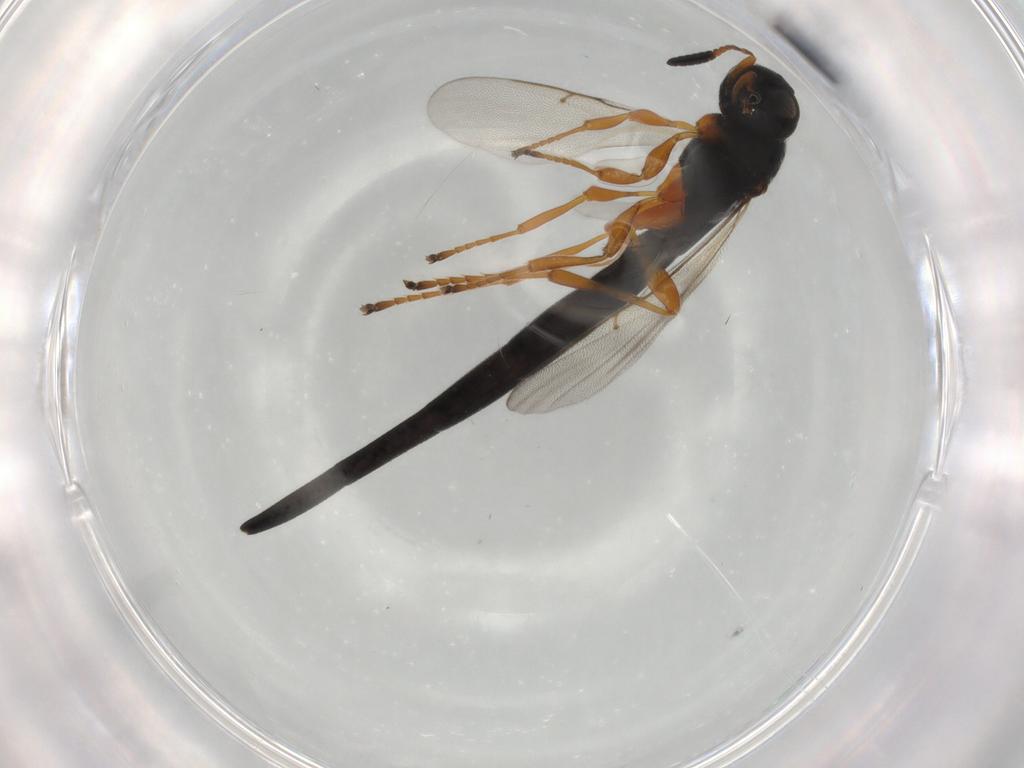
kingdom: Animalia
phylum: Arthropoda
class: Insecta
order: Hymenoptera
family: Scelionidae
